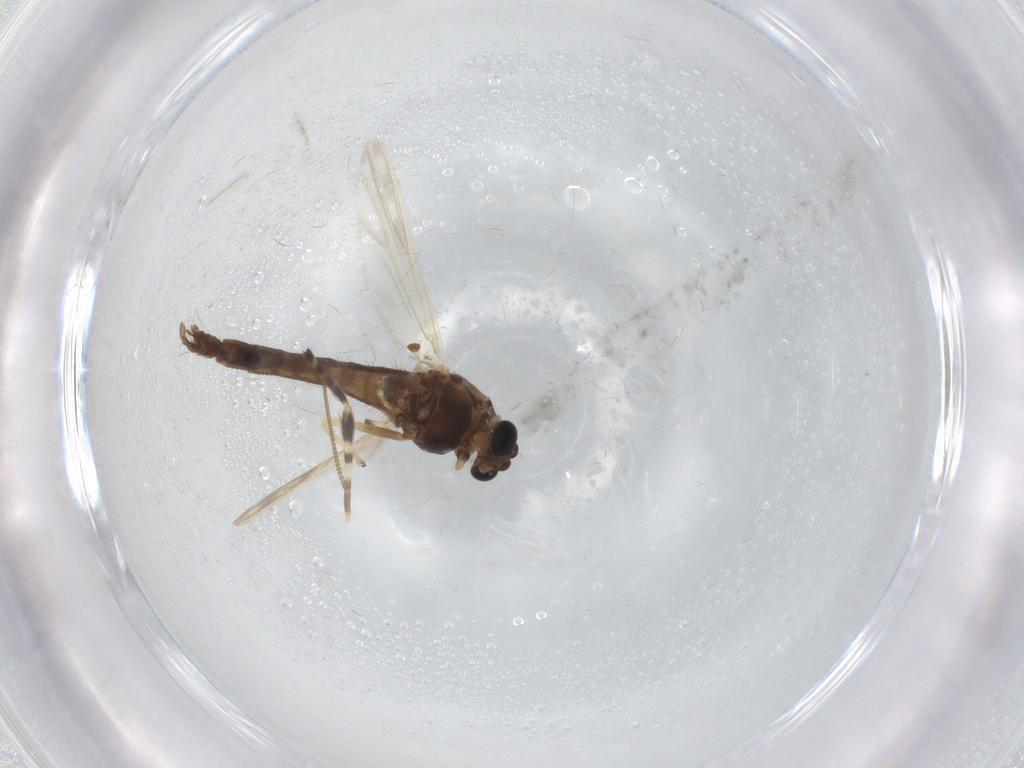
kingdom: Animalia
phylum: Arthropoda
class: Insecta
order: Diptera
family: Chironomidae
